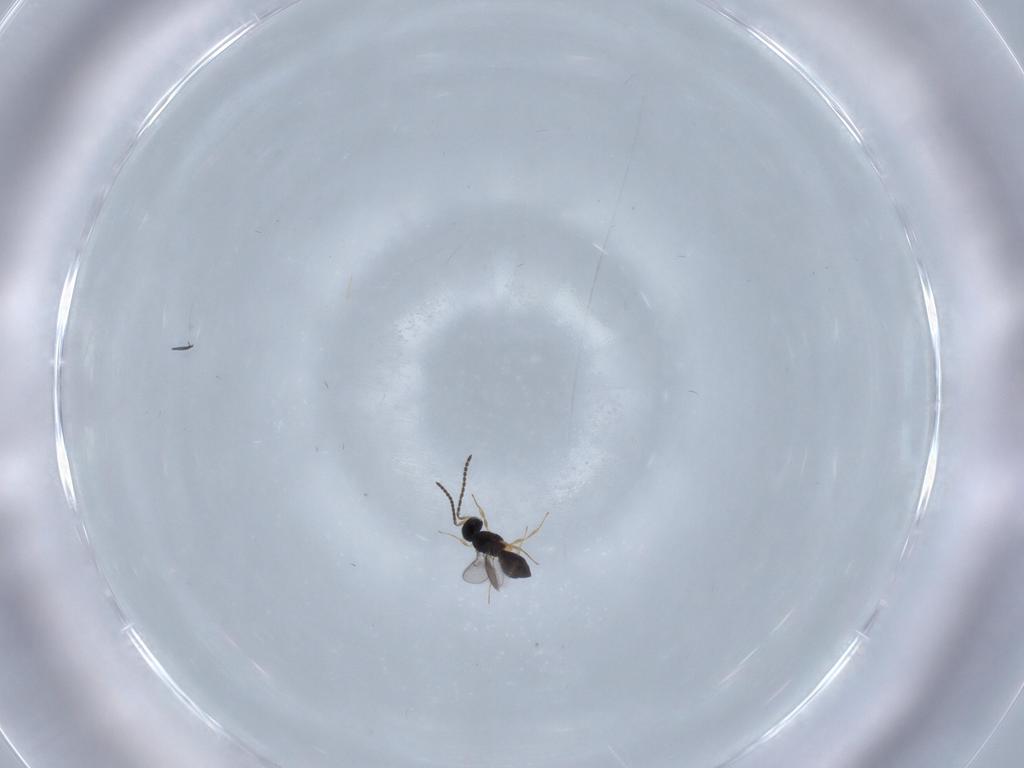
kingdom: Animalia
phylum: Arthropoda
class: Insecta
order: Hymenoptera
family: Scelionidae
